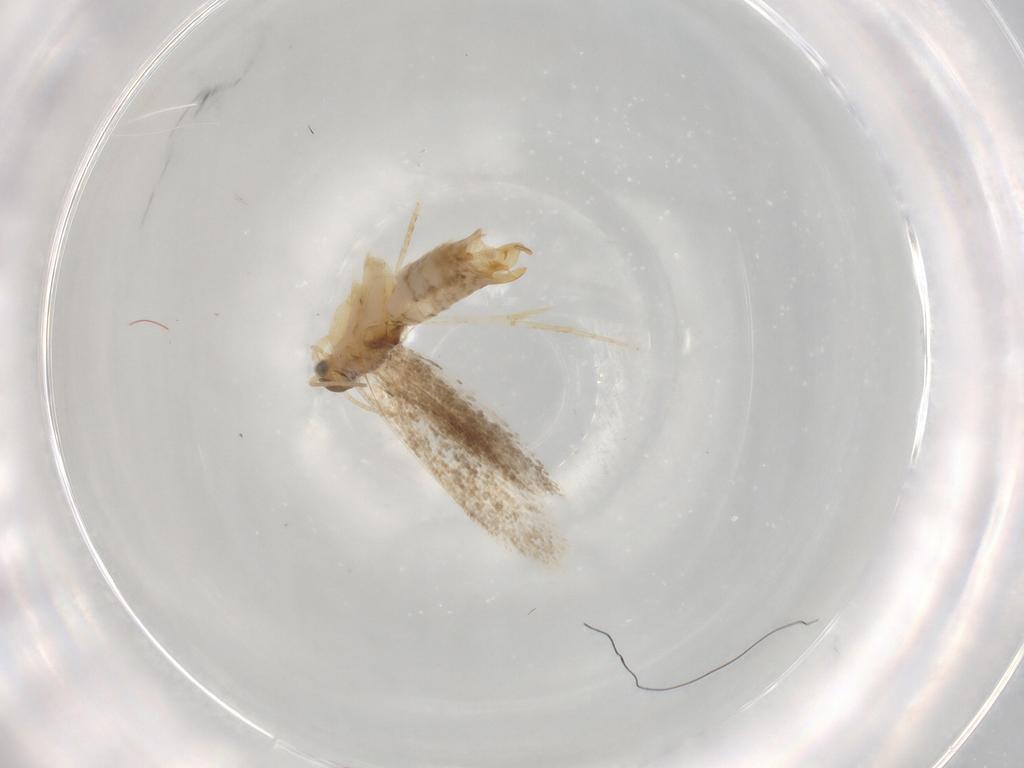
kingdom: Animalia
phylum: Arthropoda
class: Insecta
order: Lepidoptera
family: Dryadaulidae
